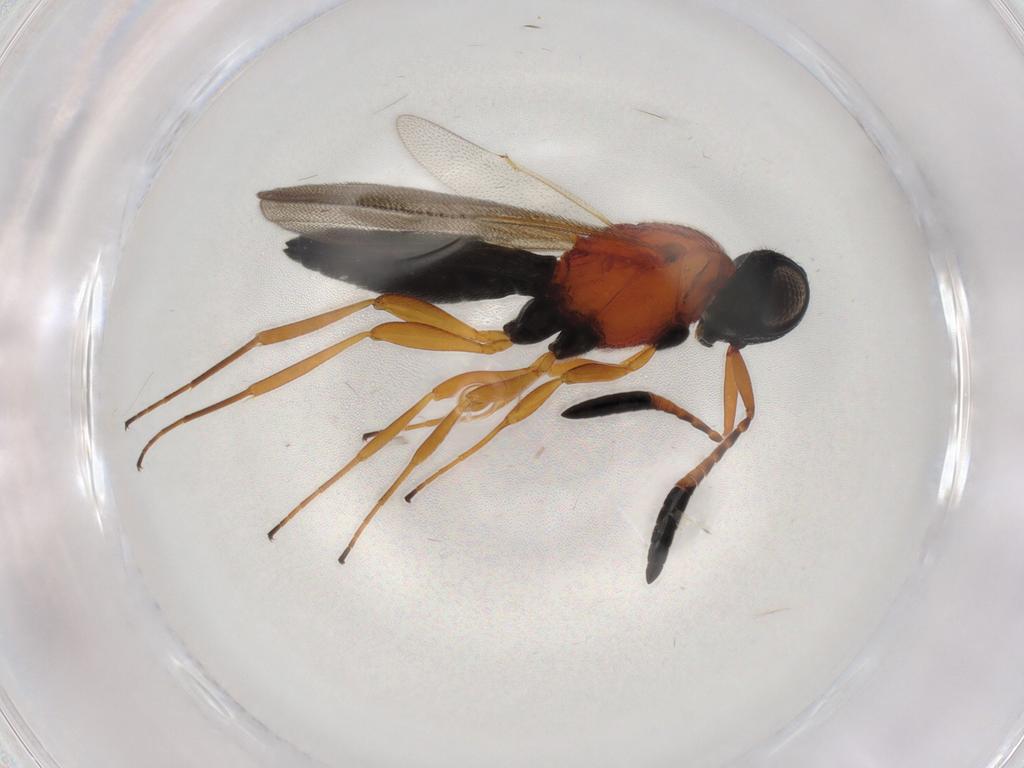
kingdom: Animalia
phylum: Arthropoda
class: Insecta
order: Hymenoptera
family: Scelionidae
